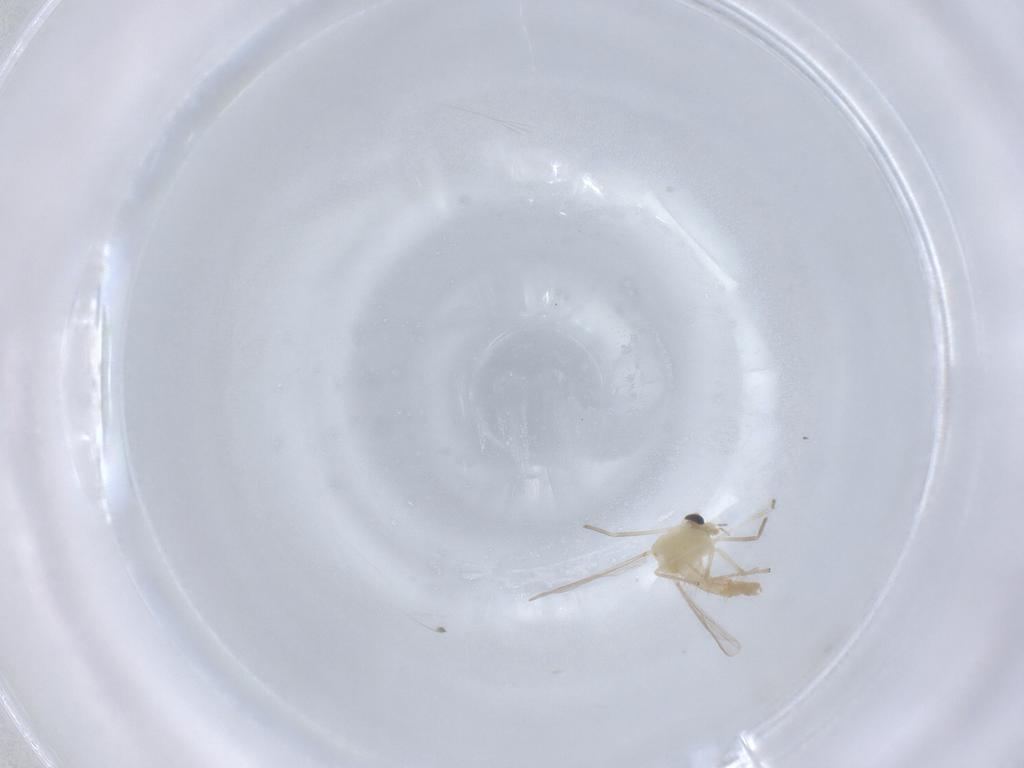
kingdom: Animalia
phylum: Arthropoda
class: Insecta
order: Diptera
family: Chironomidae
